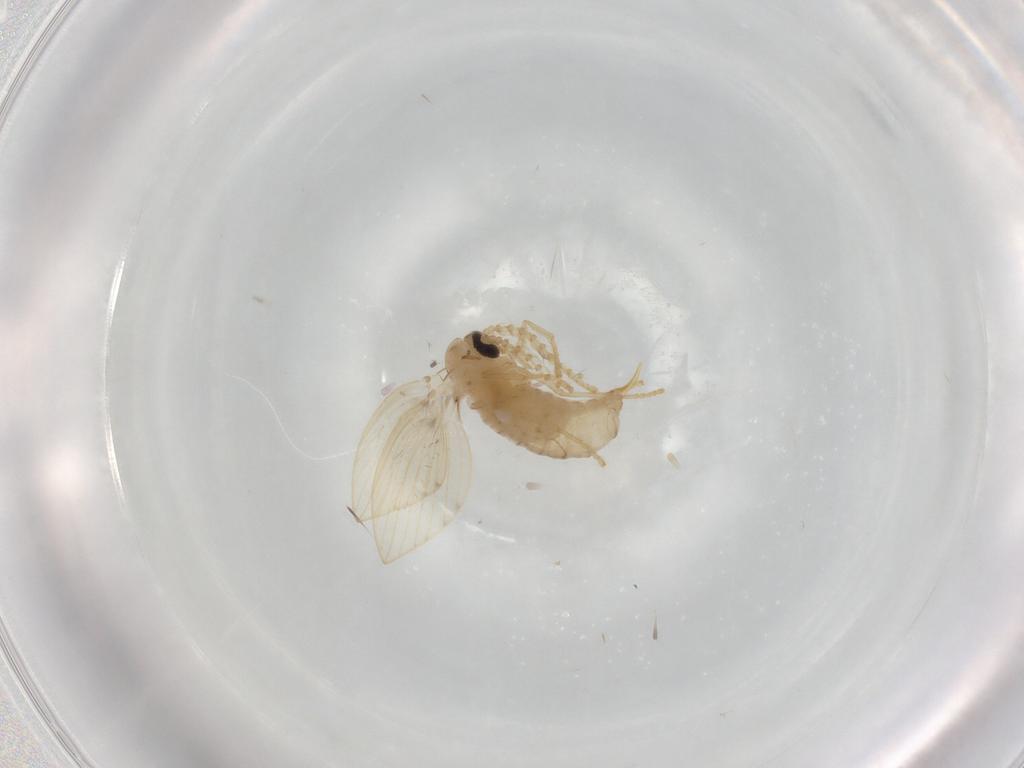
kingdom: Animalia
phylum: Arthropoda
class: Insecta
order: Diptera
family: Psychodidae
